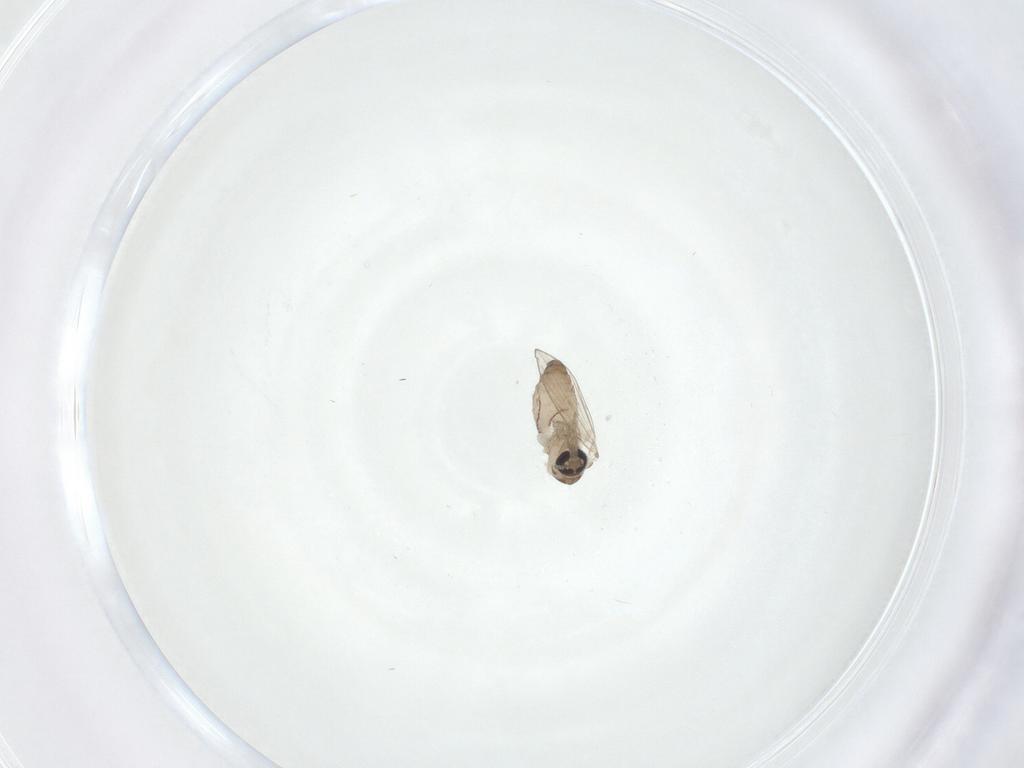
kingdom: Animalia
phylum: Arthropoda
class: Insecta
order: Diptera
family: Psychodidae
